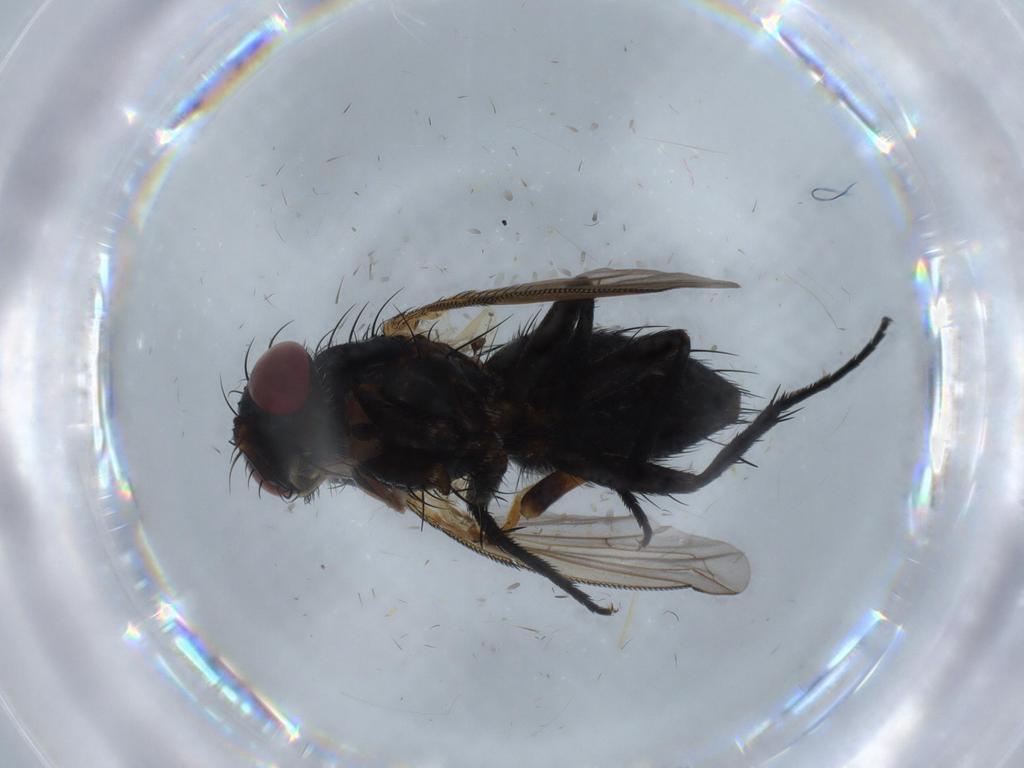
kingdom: Animalia
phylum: Arthropoda
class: Insecta
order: Diptera
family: Tachinidae
